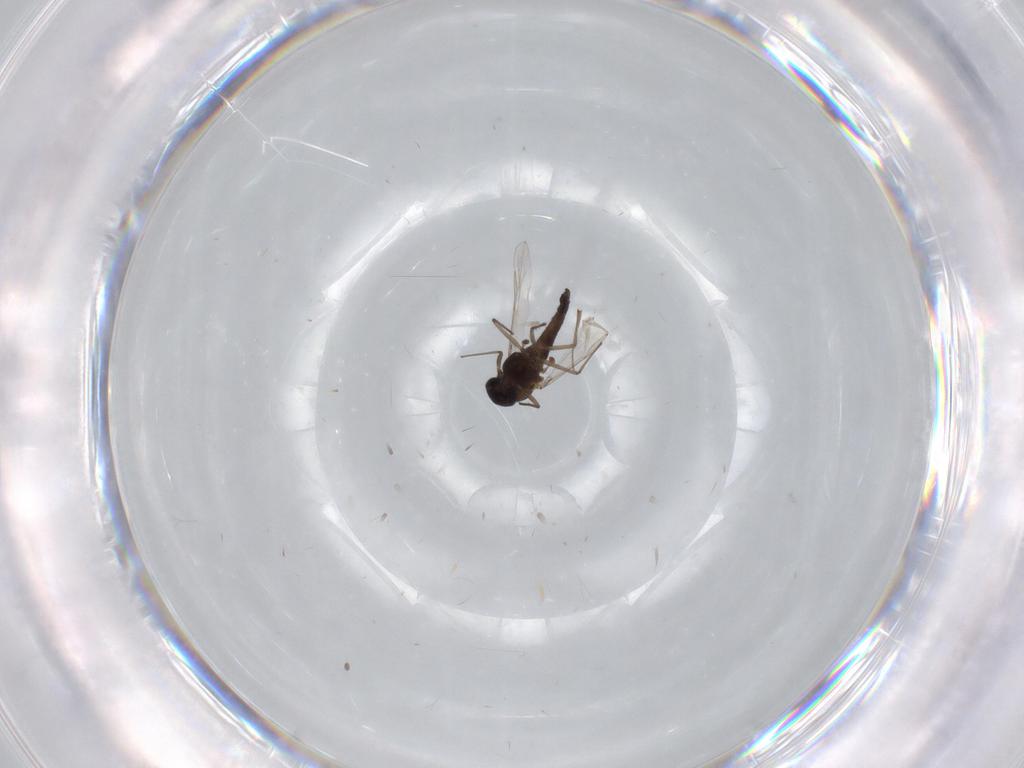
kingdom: Animalia
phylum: Arthropoda
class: Insecta
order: Diptera
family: Chironomidae
